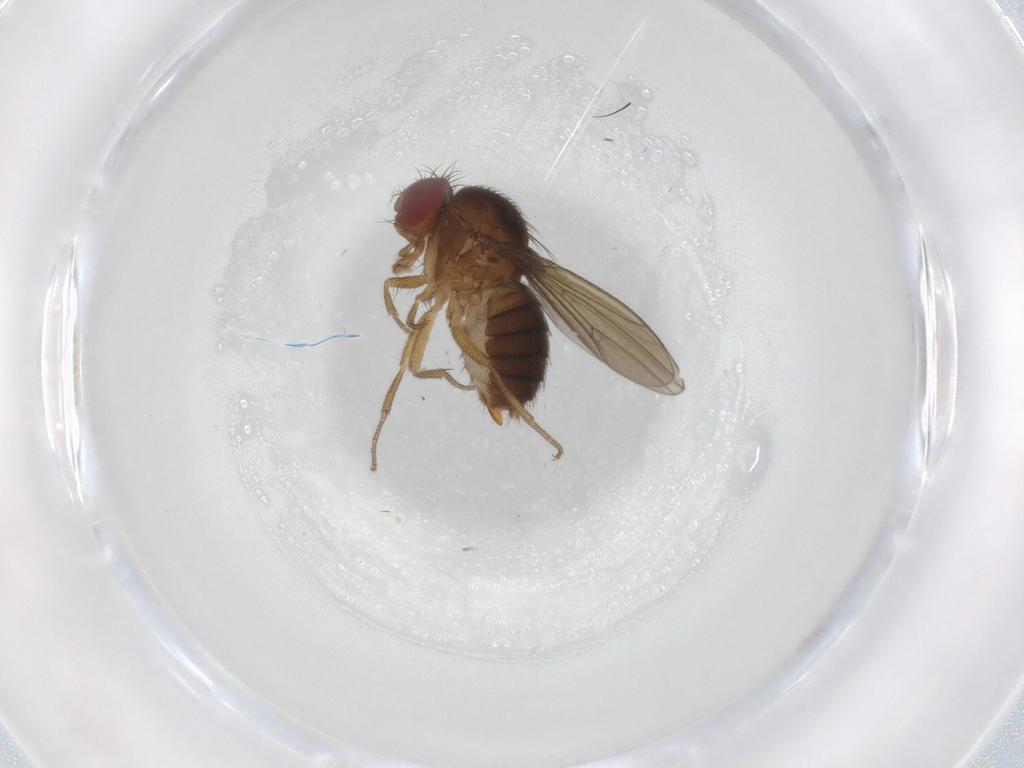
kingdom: Animalia
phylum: Arthropoda
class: Insecta
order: Diptera
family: Drosophilidae
